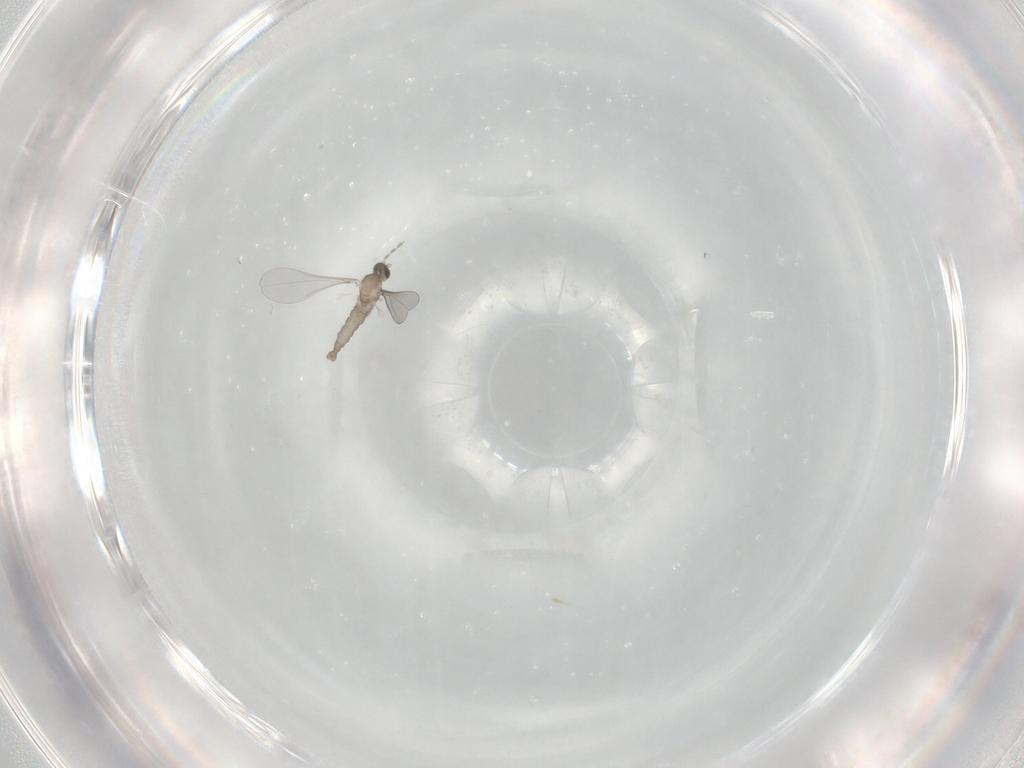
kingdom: Animalia
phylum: Arthropoda
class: Insecta
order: Diptera
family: Cecidomyiidae
